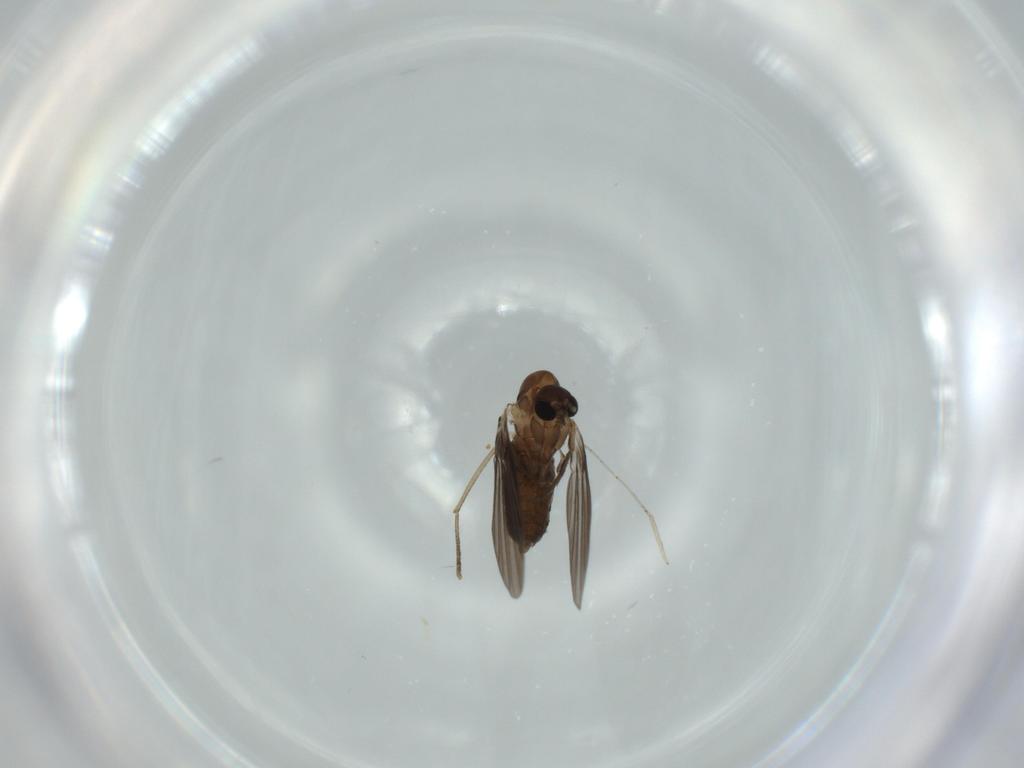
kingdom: Animalia
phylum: Arthropoda
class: Insecta
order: Diptera
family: Psychodidae
